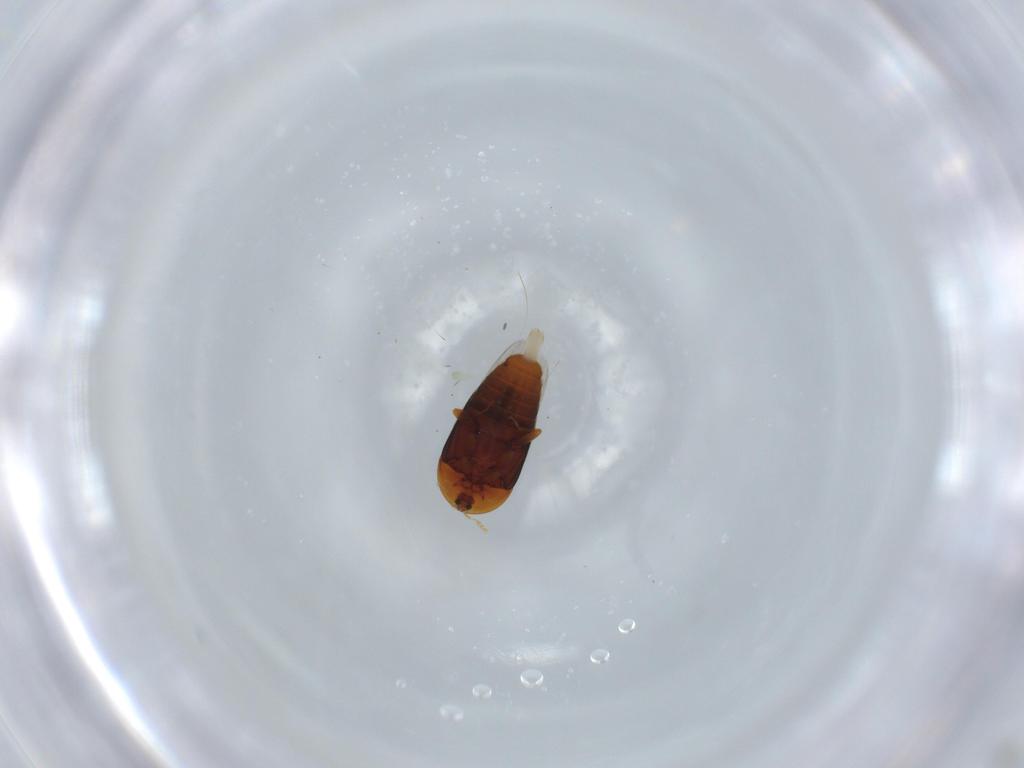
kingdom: Animalia
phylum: Arthropoda
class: Insecta
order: Coleoptera
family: Corylophidae
